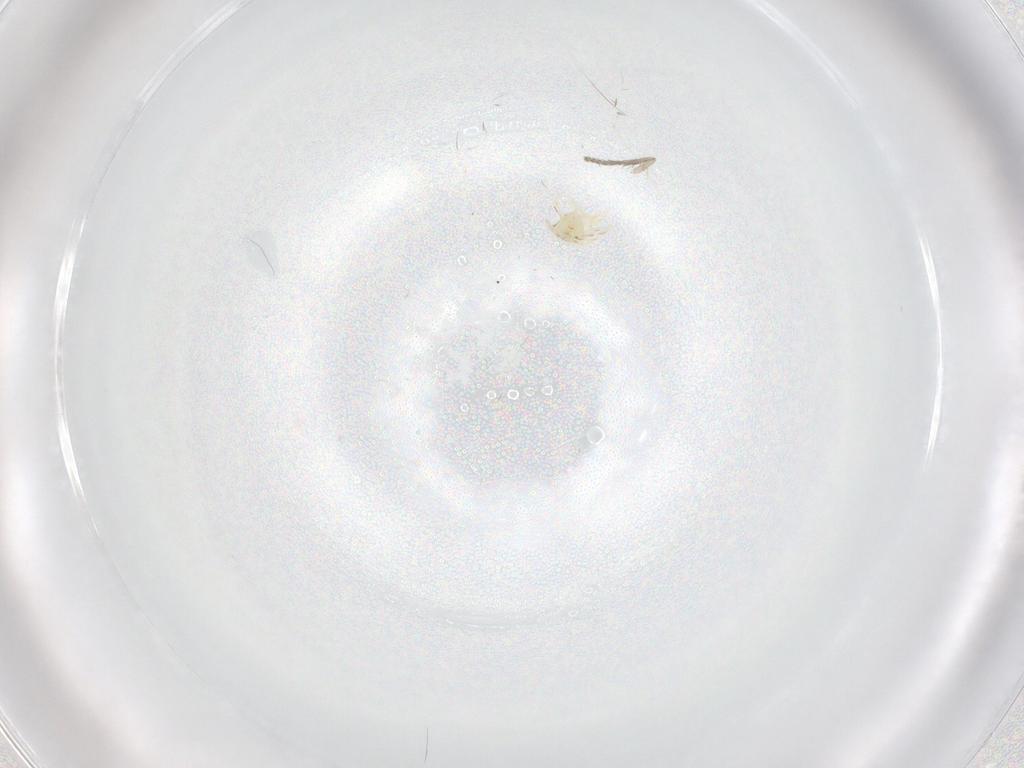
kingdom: Animalia
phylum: Arthropoda
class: Insecta
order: Hemiptera
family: Aleyrodidae
